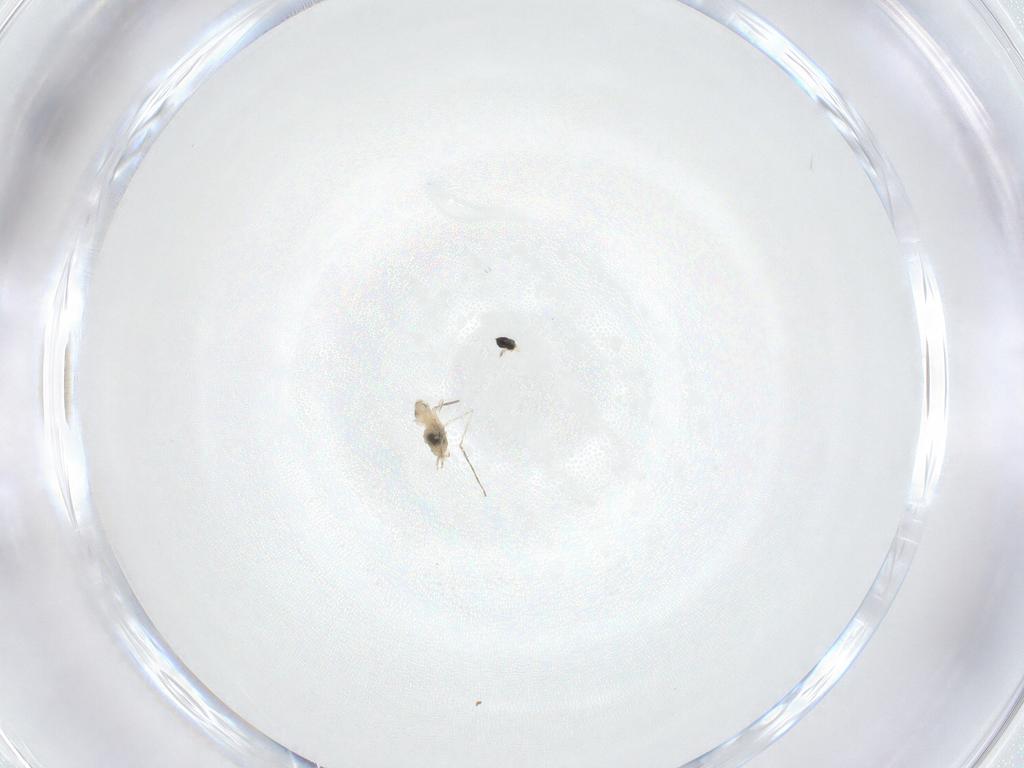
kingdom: Animalia
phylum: Arthropoda
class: Insecta
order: Diptera
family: Cecidomyiidae
